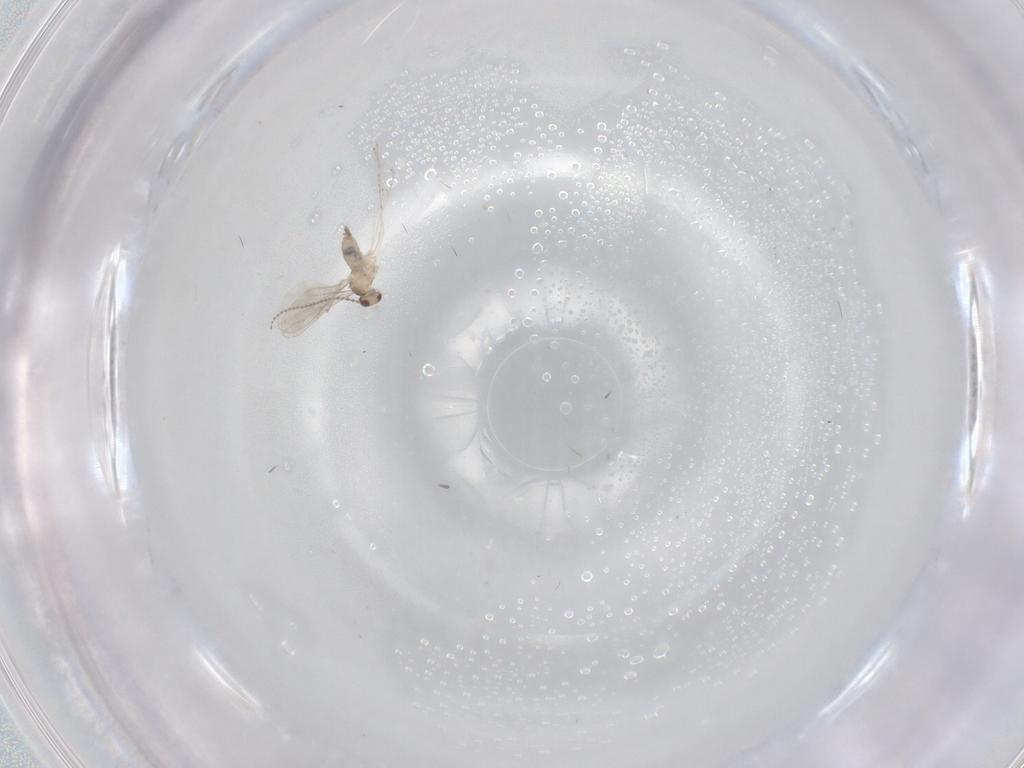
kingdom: Animalia
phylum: Arthropoda
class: Insecta
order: Diptera
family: Cecidomyiidae
